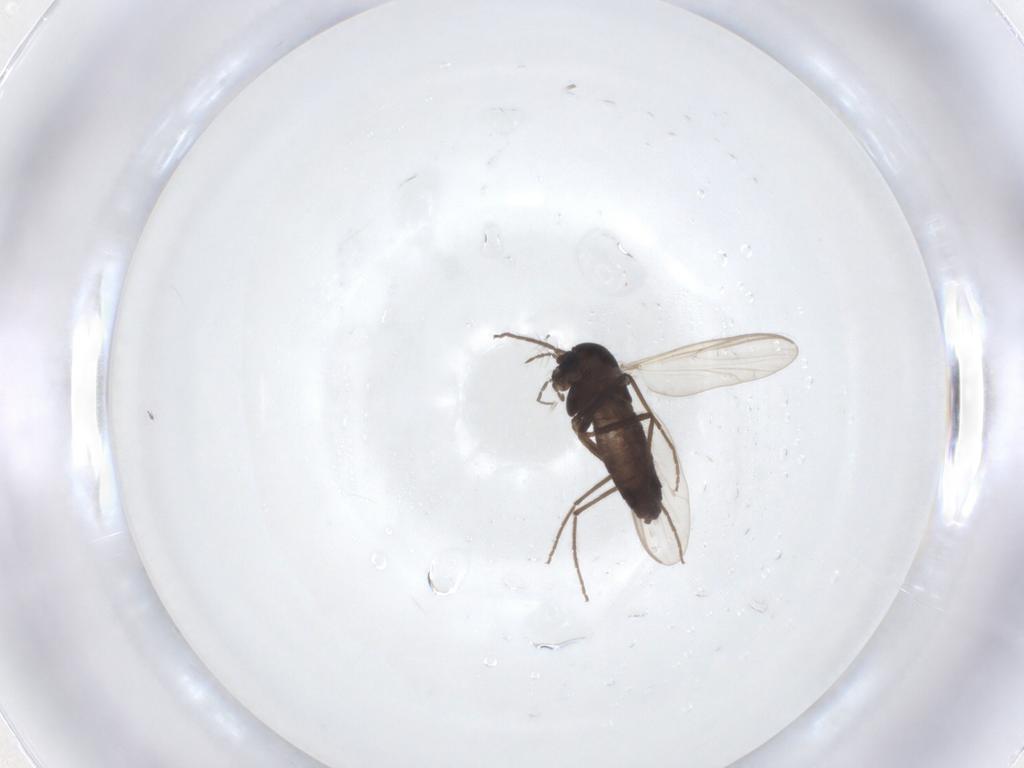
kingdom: Animalia
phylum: Arthropoda
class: Insecta
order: Diptera
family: Chironomidae
